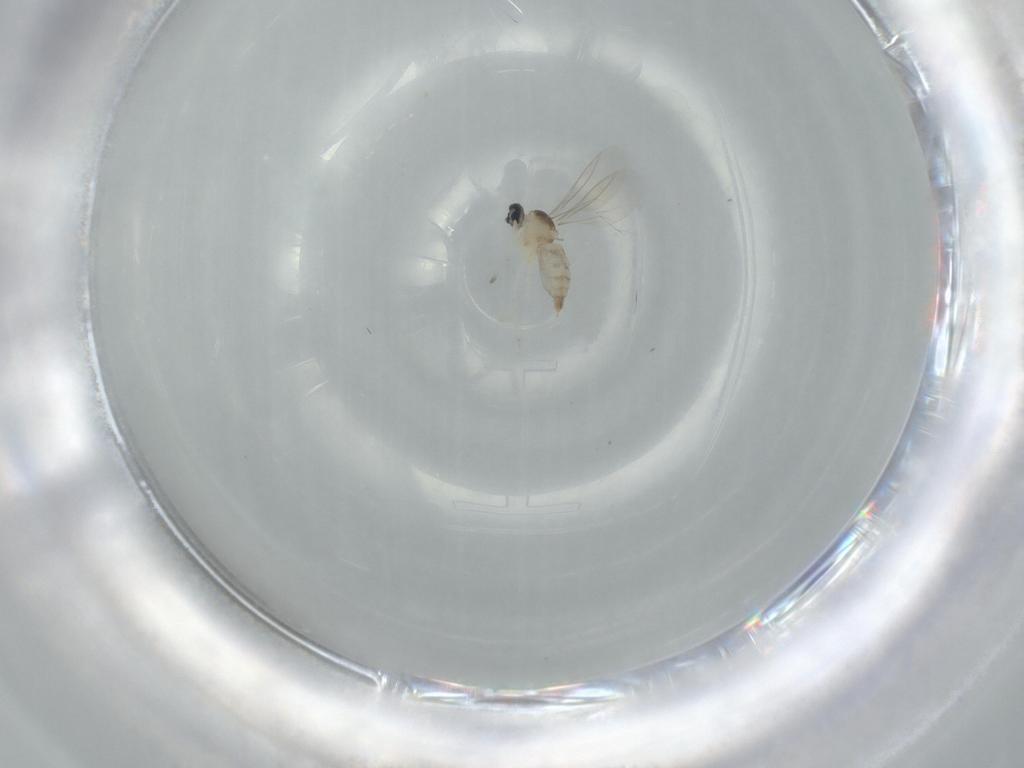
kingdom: Animalia
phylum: Arthropoda
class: Insecta
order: Diptera
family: Cecidomyiidae
